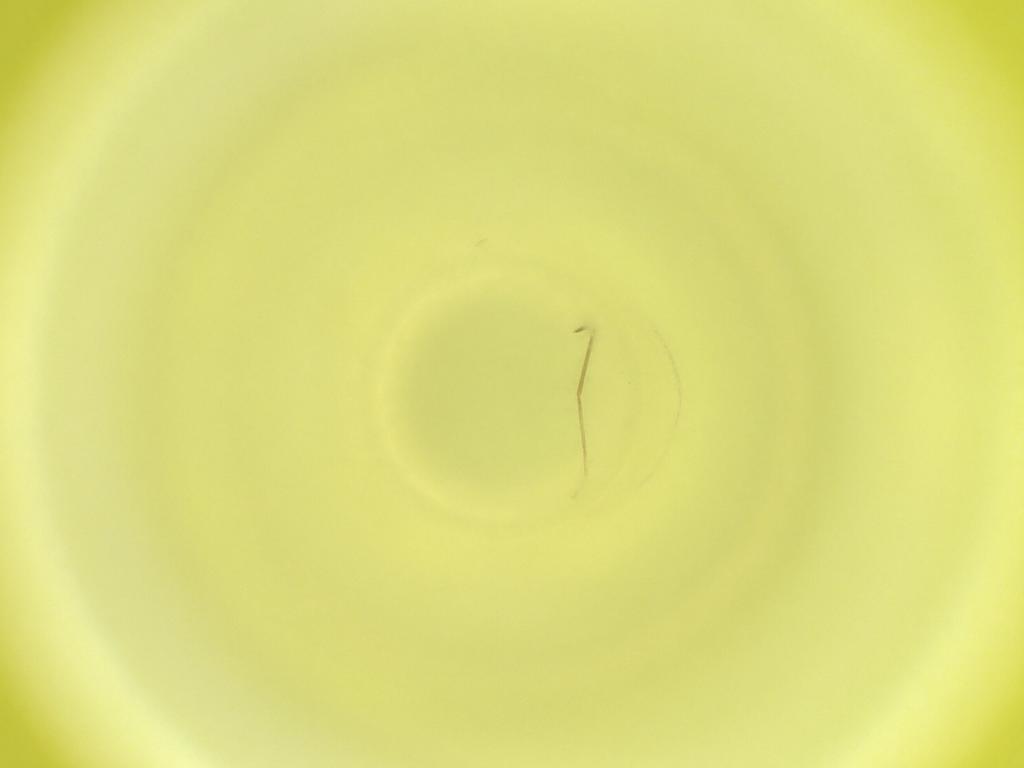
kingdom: Animalia
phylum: Arthropoda
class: Insecta
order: Diptera
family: Cecidomyiidae
